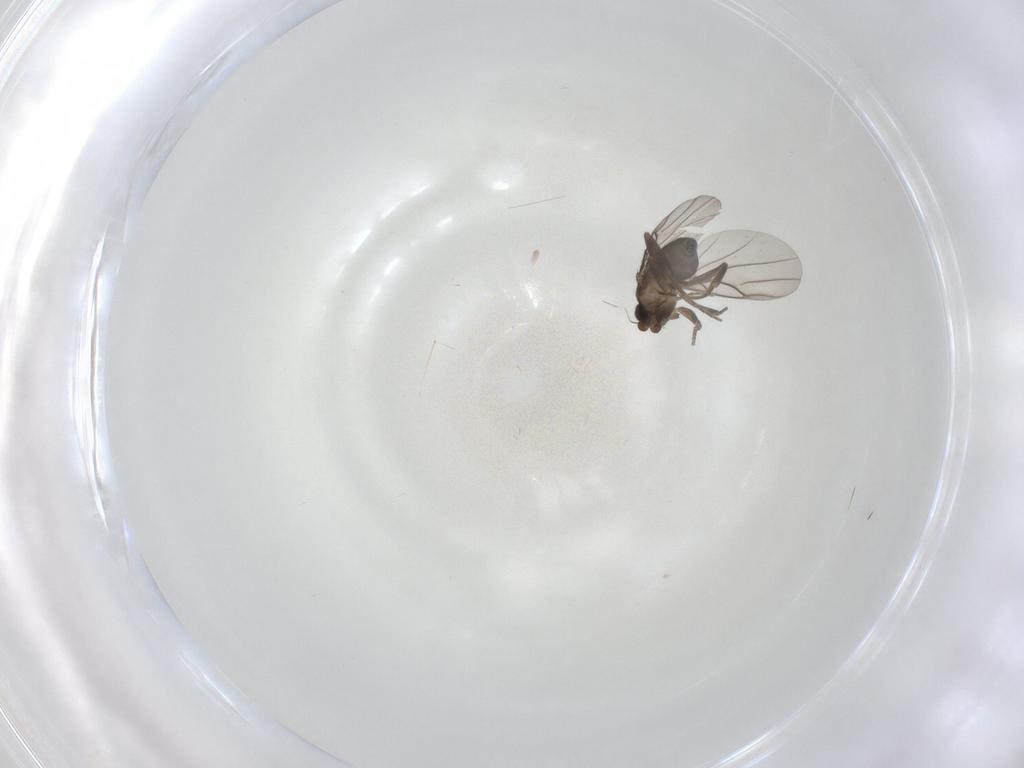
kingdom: Animalia
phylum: Arthropoda
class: Insecta
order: Diptera
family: Phoridae
